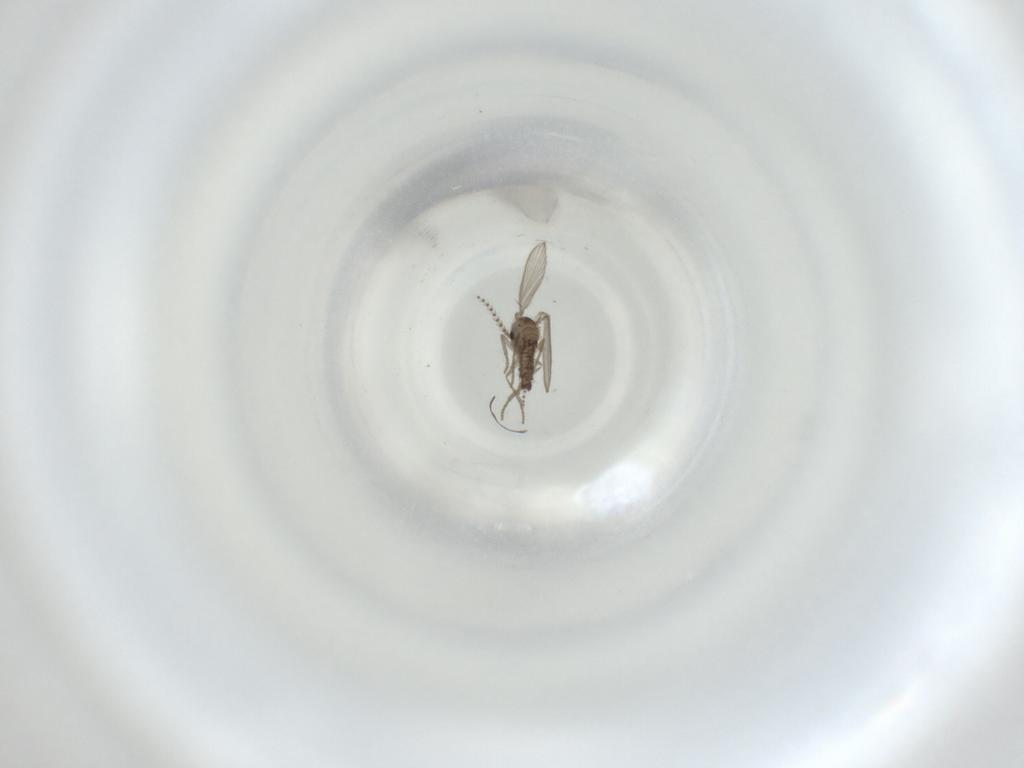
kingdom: Animalia
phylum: Arthropoda
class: Insecta
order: Diptera
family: Psychodidae
